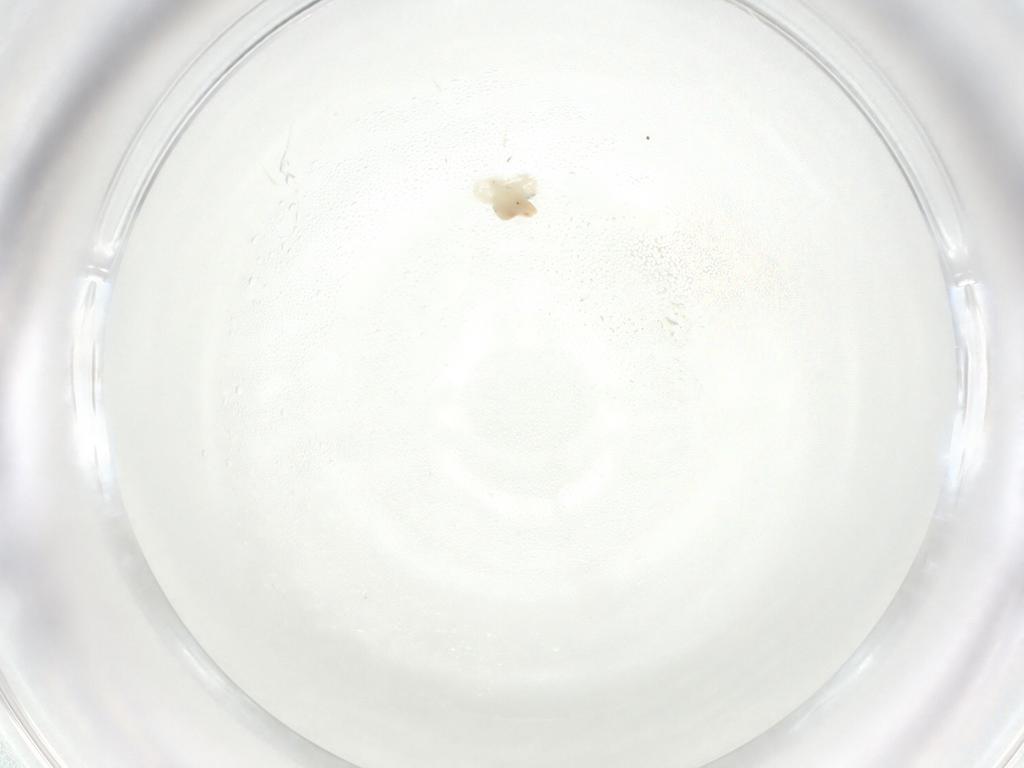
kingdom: Animalia
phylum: Arthropoda
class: Arachnida
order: Trombidiformes
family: Anystidae
